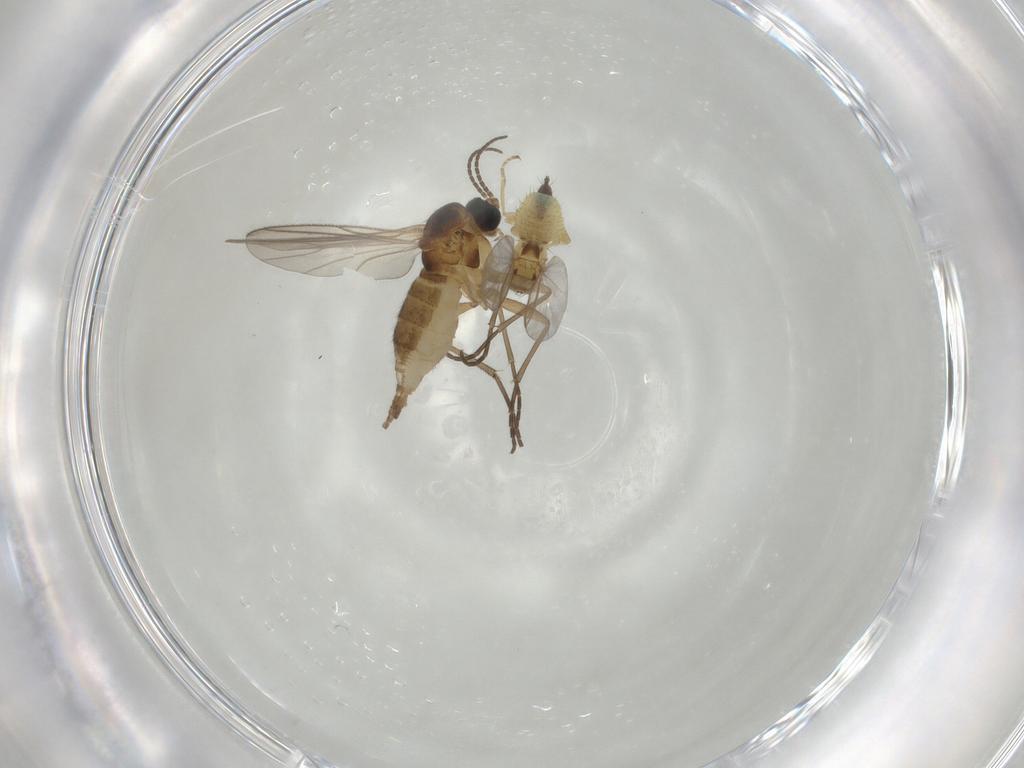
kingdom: Animalia
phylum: Arthropoda
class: Insecta
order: Diptera
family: Sciaridae
